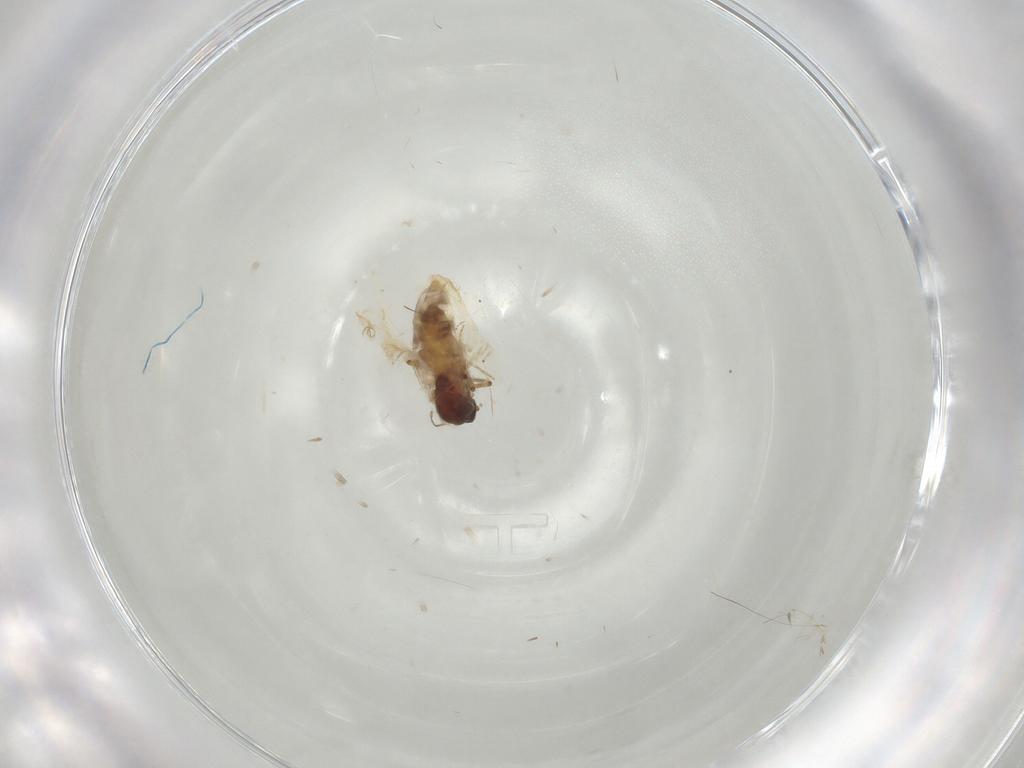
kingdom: Animalia
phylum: Arthropoda
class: Insecta
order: Diptera
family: Ceratopogonidae
